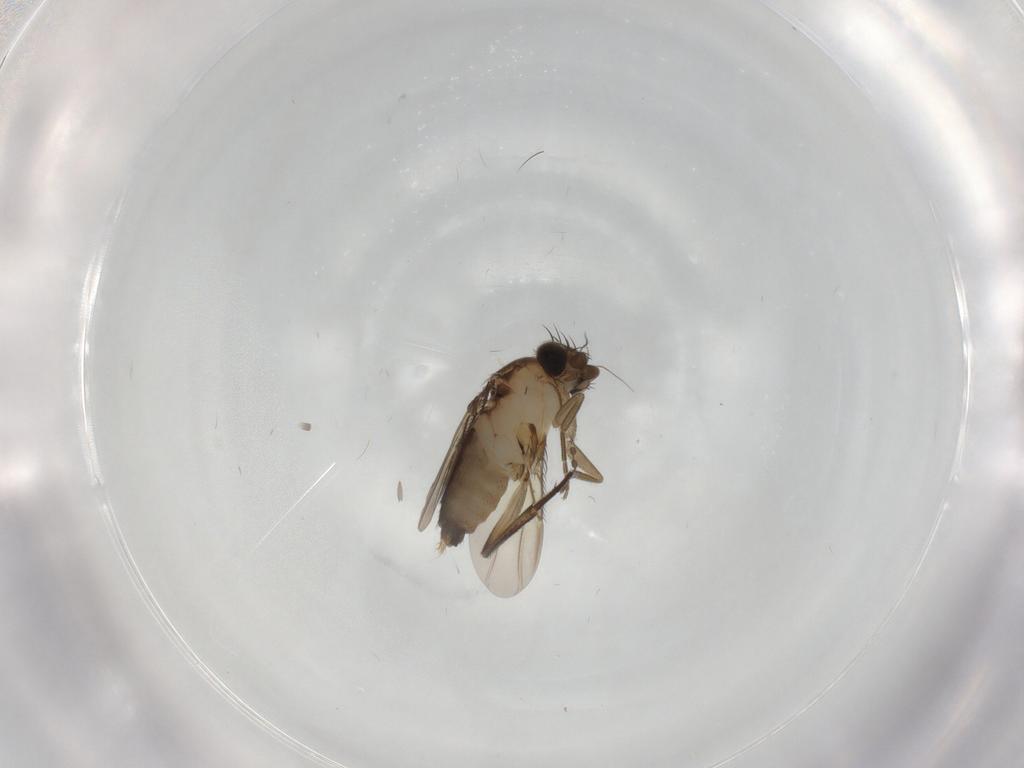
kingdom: Animalia
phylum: Arthropoda
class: Insecta
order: Diptera
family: Phoridae
